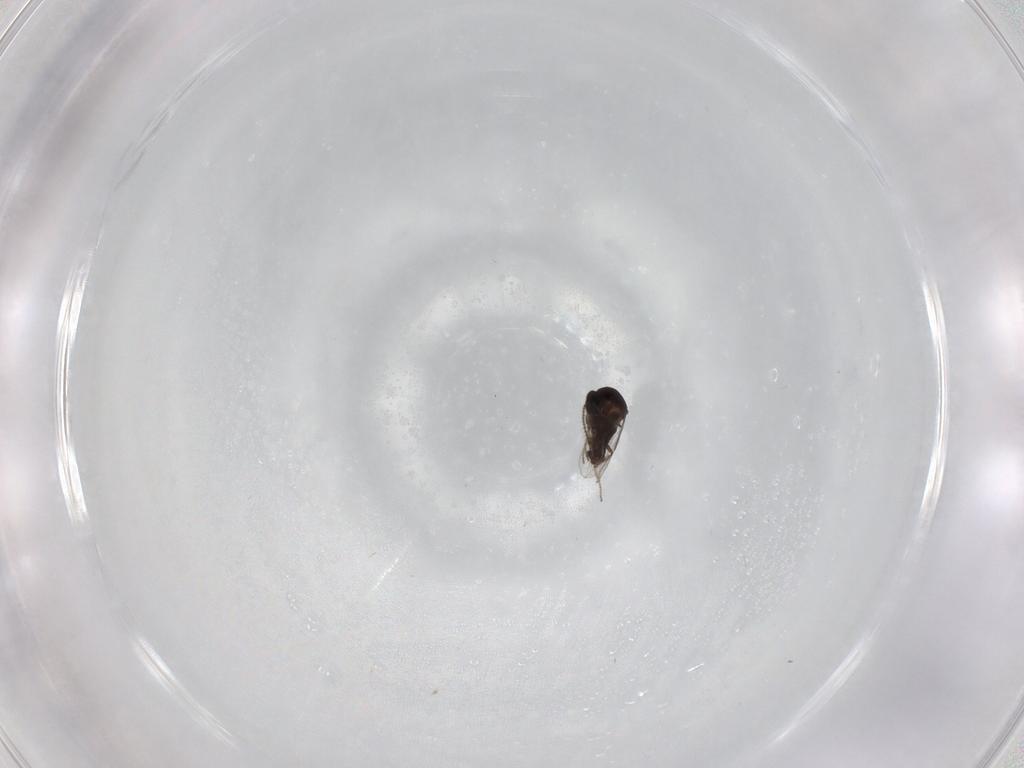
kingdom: Animalia
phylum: Arthropoda
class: Insecta
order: Diptera
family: Ceratopogonidae
